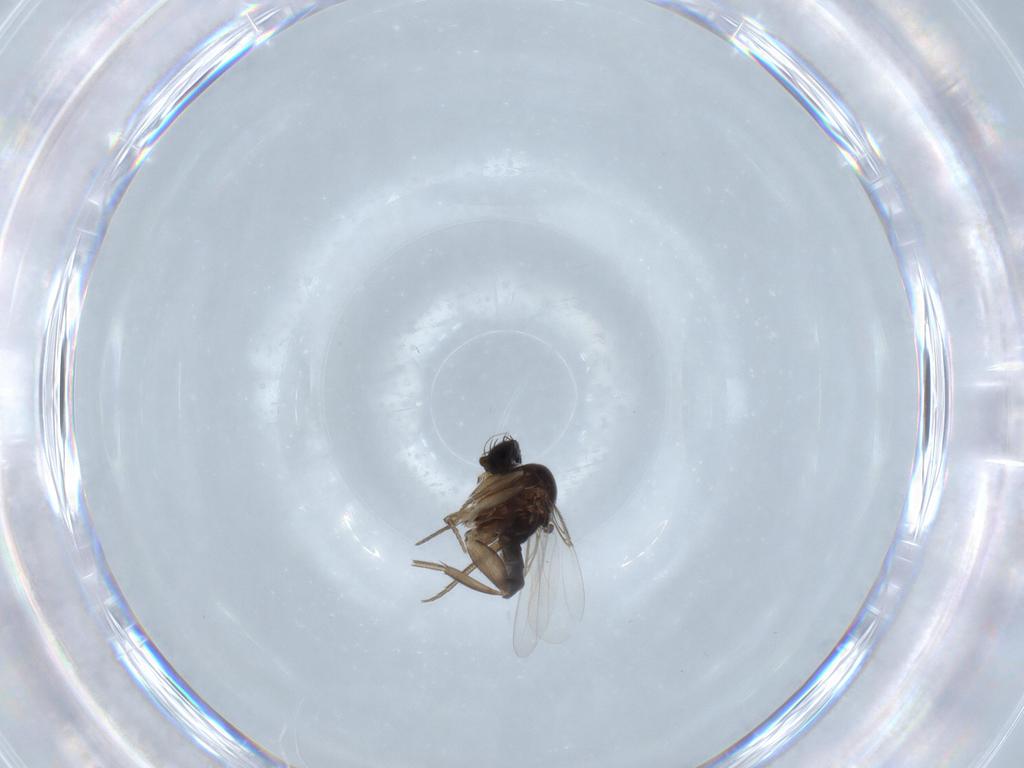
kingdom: Animalia
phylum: Arthropoda
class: Insecta
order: Diptera
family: Phoridae
